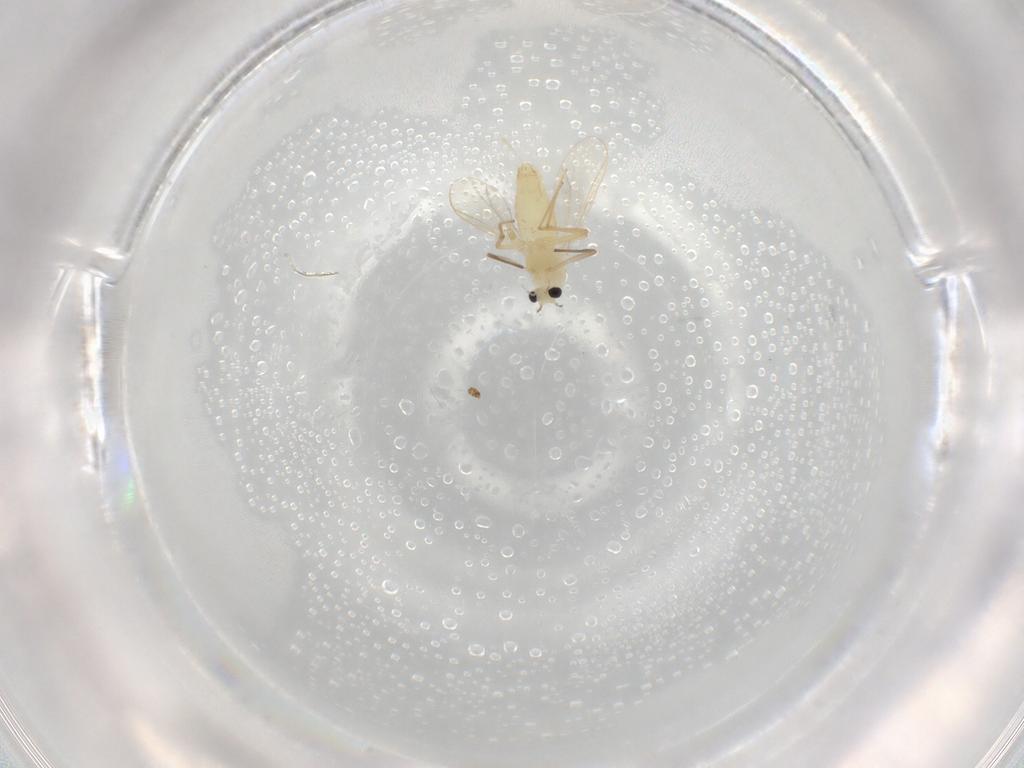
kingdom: Animalia
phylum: Arthropoda
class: Insecta
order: Diptera
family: Chironomidae
